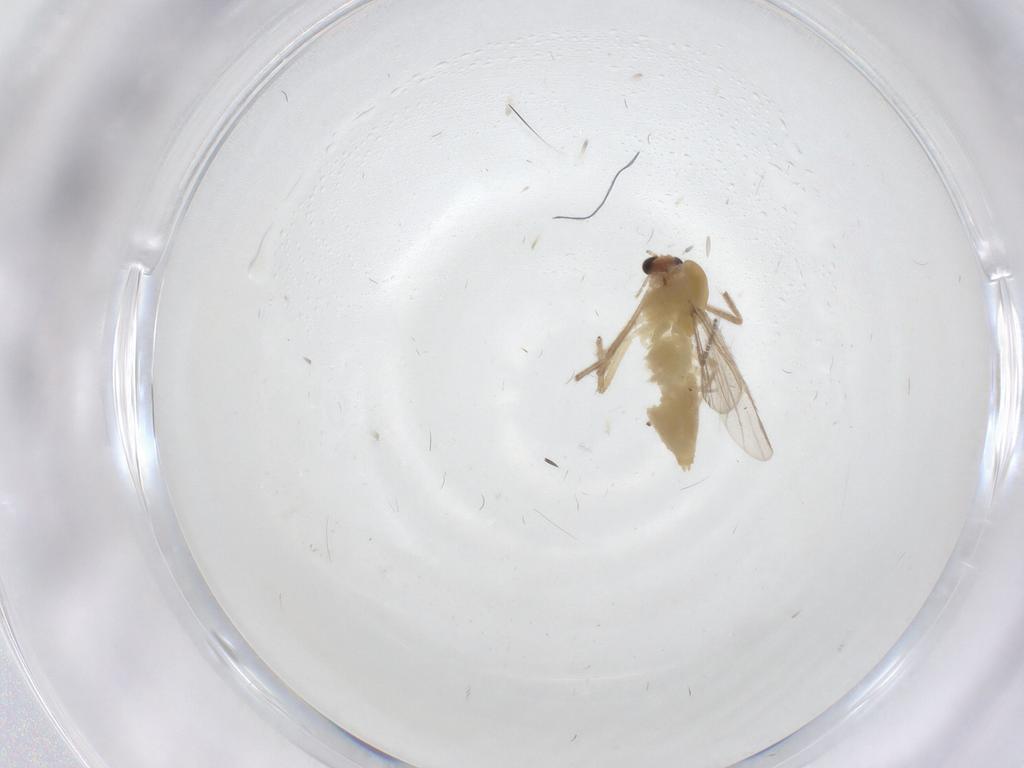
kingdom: Animalia
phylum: Arthropoda
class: Insecta
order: Diptera
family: Chironomidae
